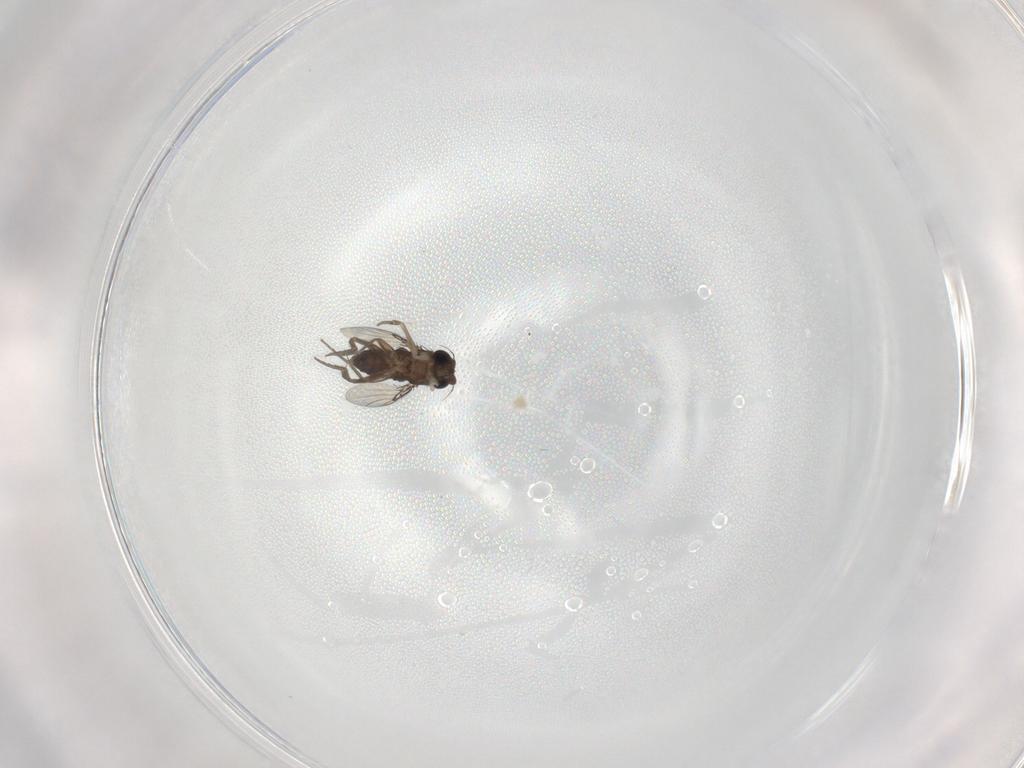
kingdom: Animalia
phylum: Arthropoda
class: Insecta
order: Diptera
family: Phoridae
